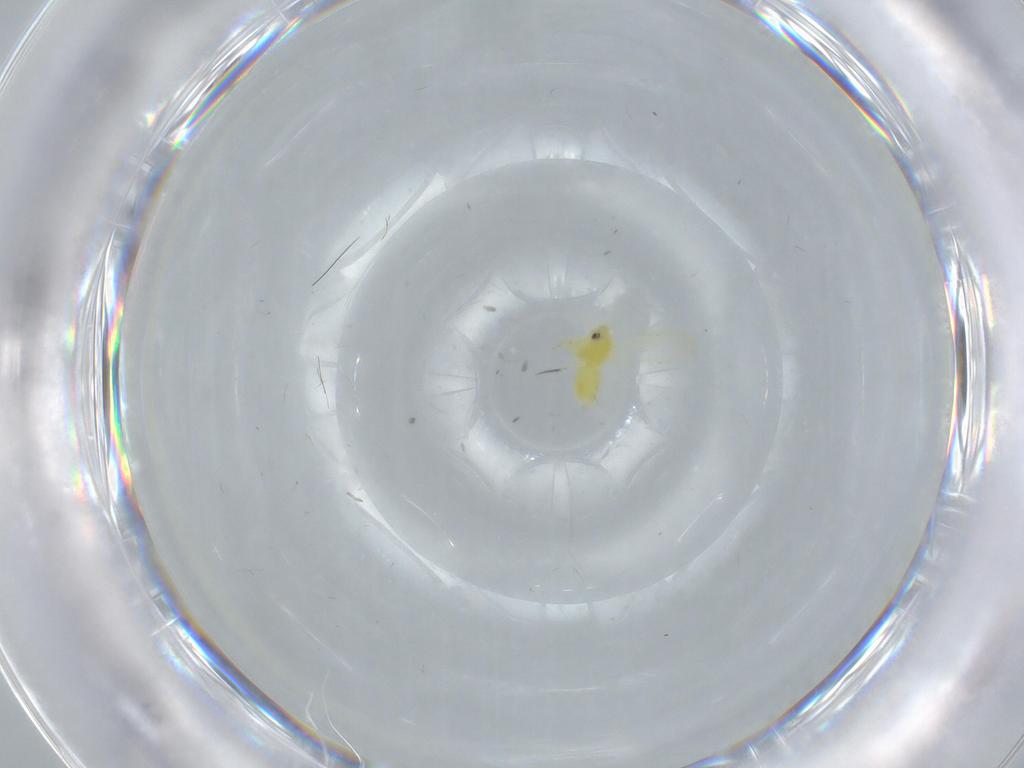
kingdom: Animalia
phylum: Arthropoda
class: Insecta
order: Hemiptera
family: Aleyrodidae
